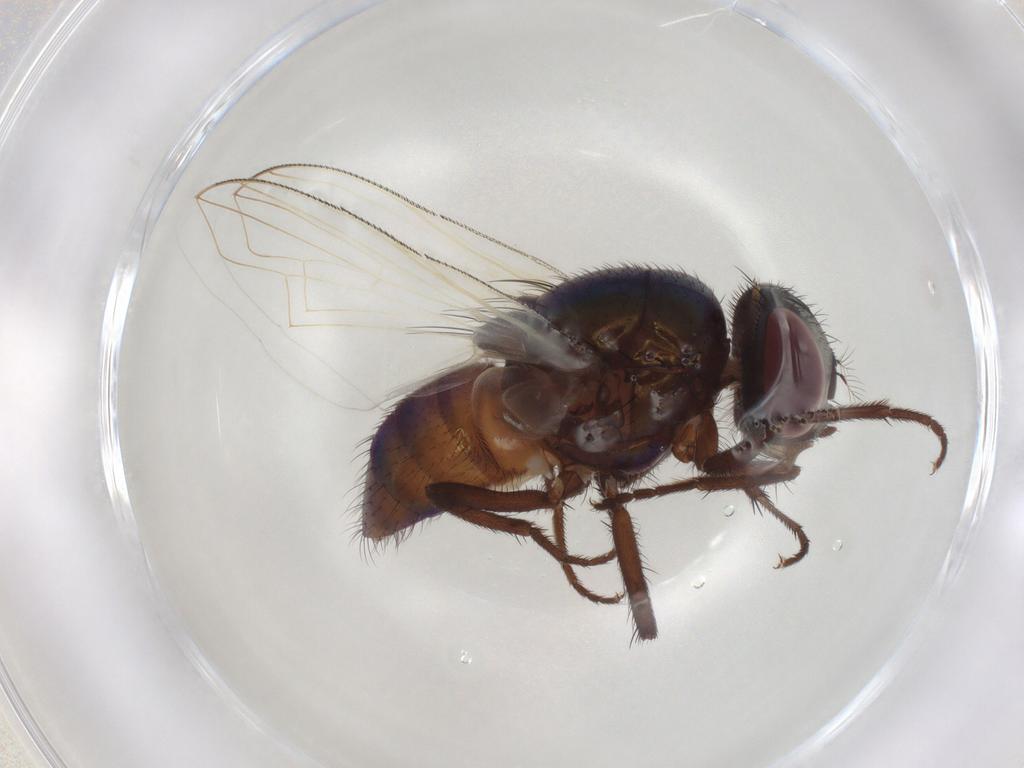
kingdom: Animalia
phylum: Arthropoda
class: Insecta
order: Diptera
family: Muscidae
